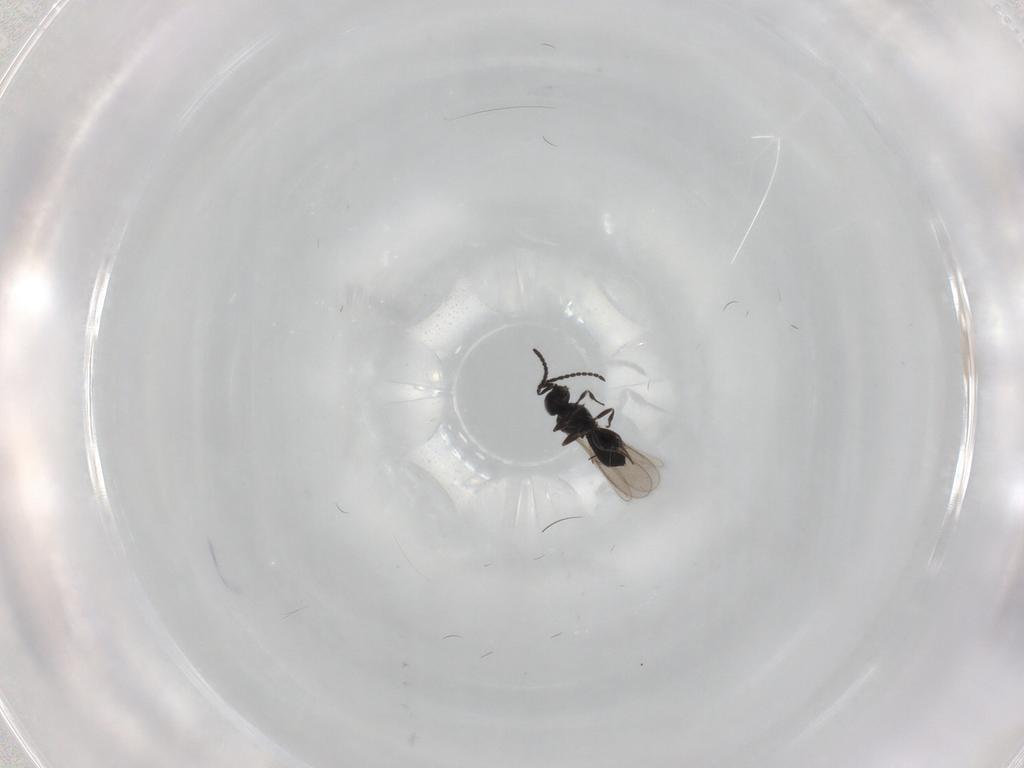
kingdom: Animalia
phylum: Arthropoda
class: Insecta
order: Hymenoptera
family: Scelionidae
